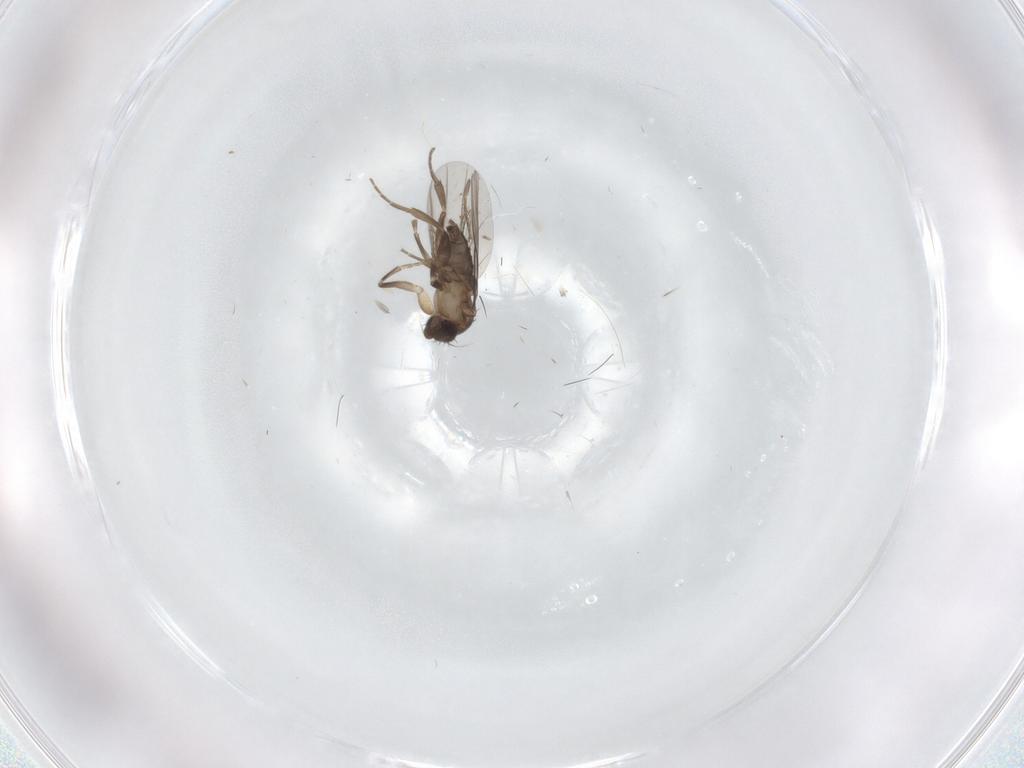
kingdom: Animalia
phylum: Arthropoda
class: Insecta
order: Diptera
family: Phoridae
